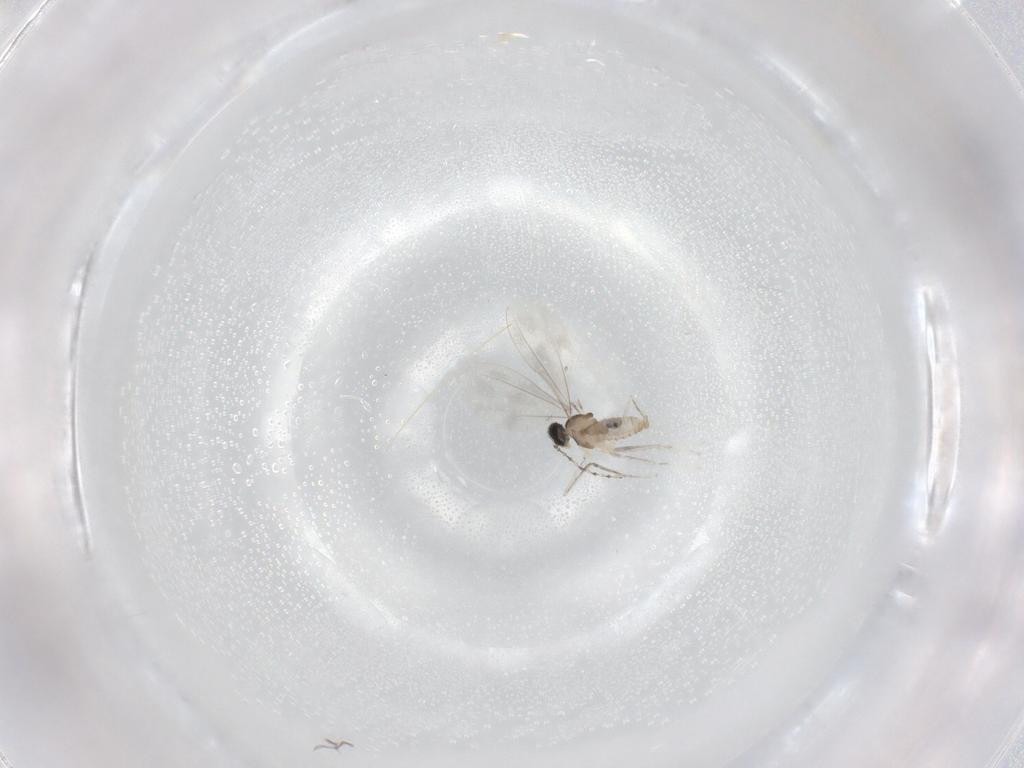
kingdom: Animalia
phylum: Arthropoda
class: Insecta
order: Diptera
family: Cecidomyiidae
